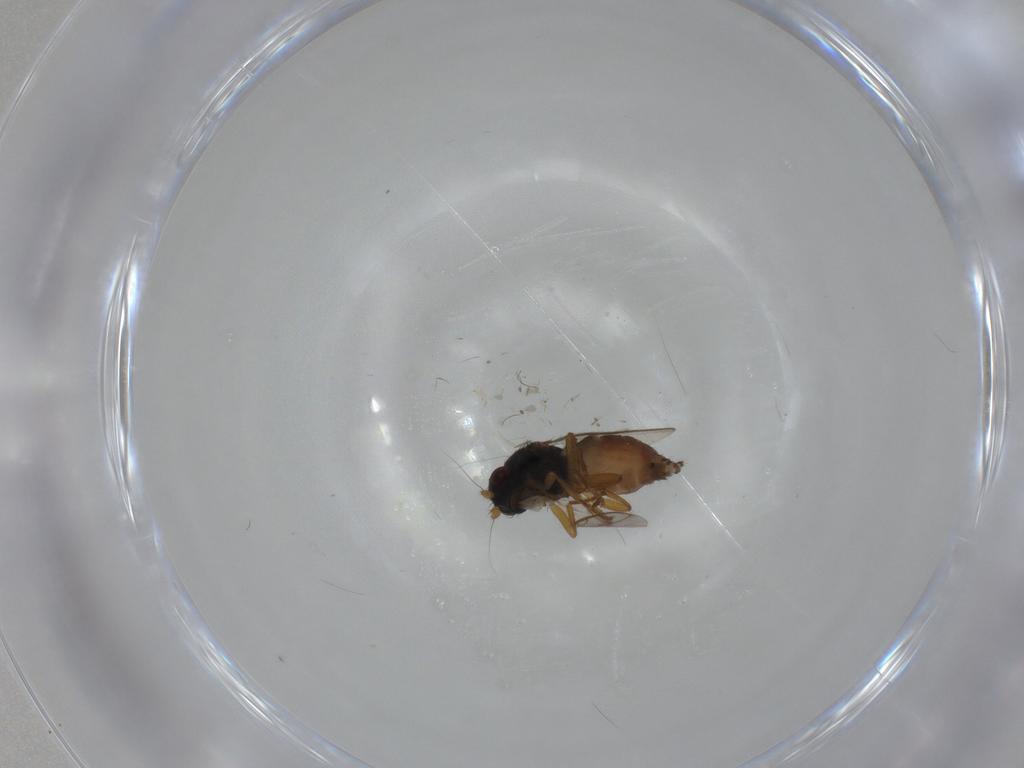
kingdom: Animalia
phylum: Arthropoda
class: Insecta
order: Diptera
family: Sphaeroceridae
